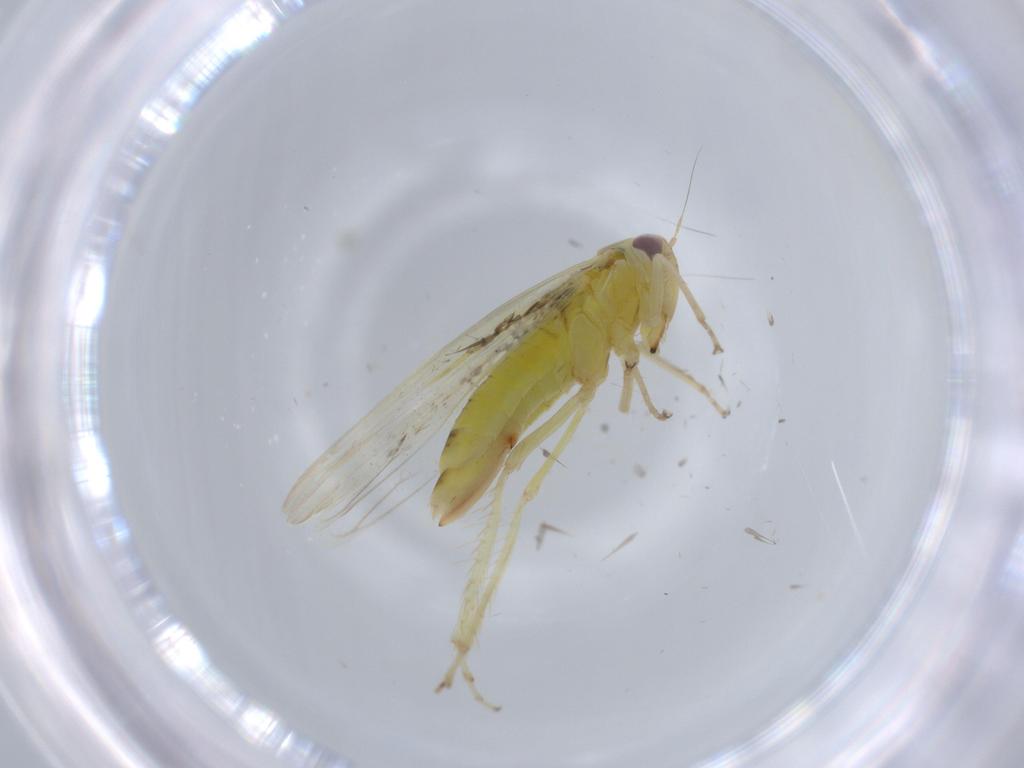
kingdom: Animalia
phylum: Arthropoda
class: Insecta
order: Hemiptera
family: Cicadellidae
